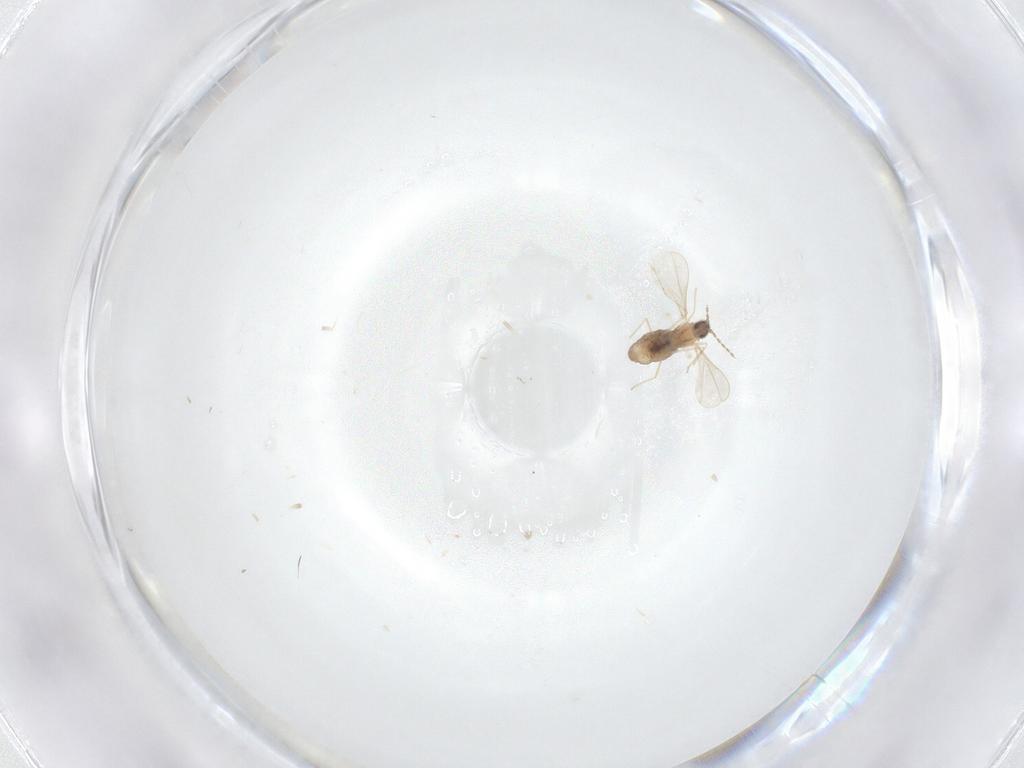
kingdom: Animalia
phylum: Arthropoda
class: Insecta
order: Diptera
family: Cecidomyiidae
